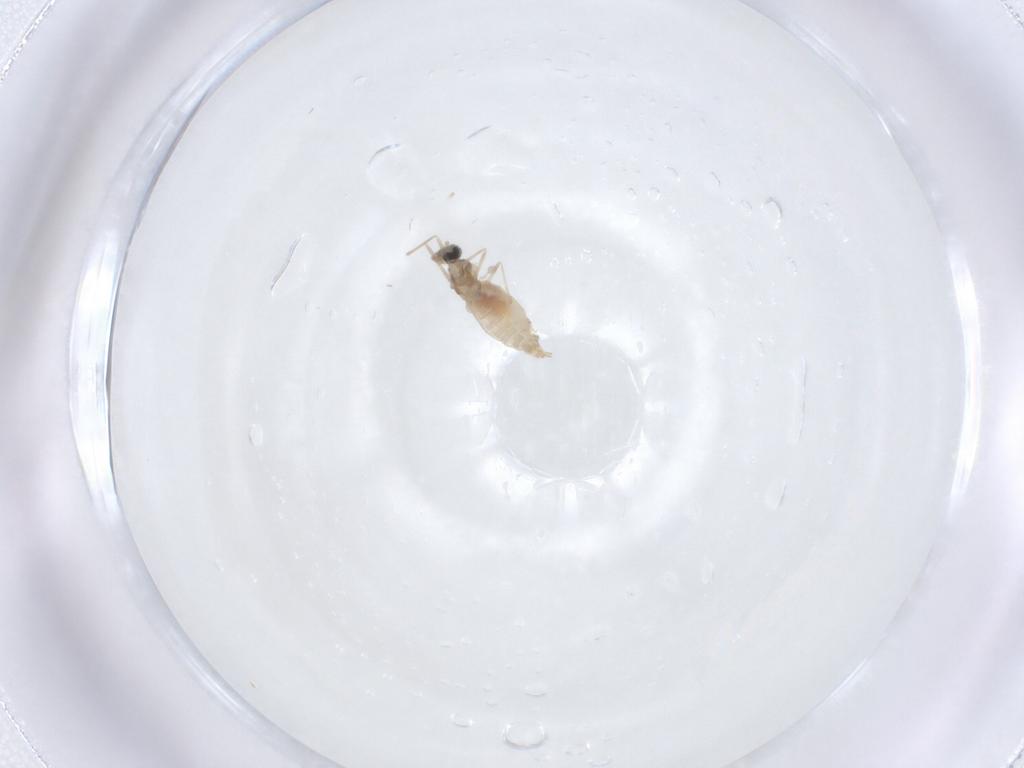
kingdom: Animalia
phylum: Arthropoda
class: Insecta
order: Diptera
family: Cecidomyiidae
